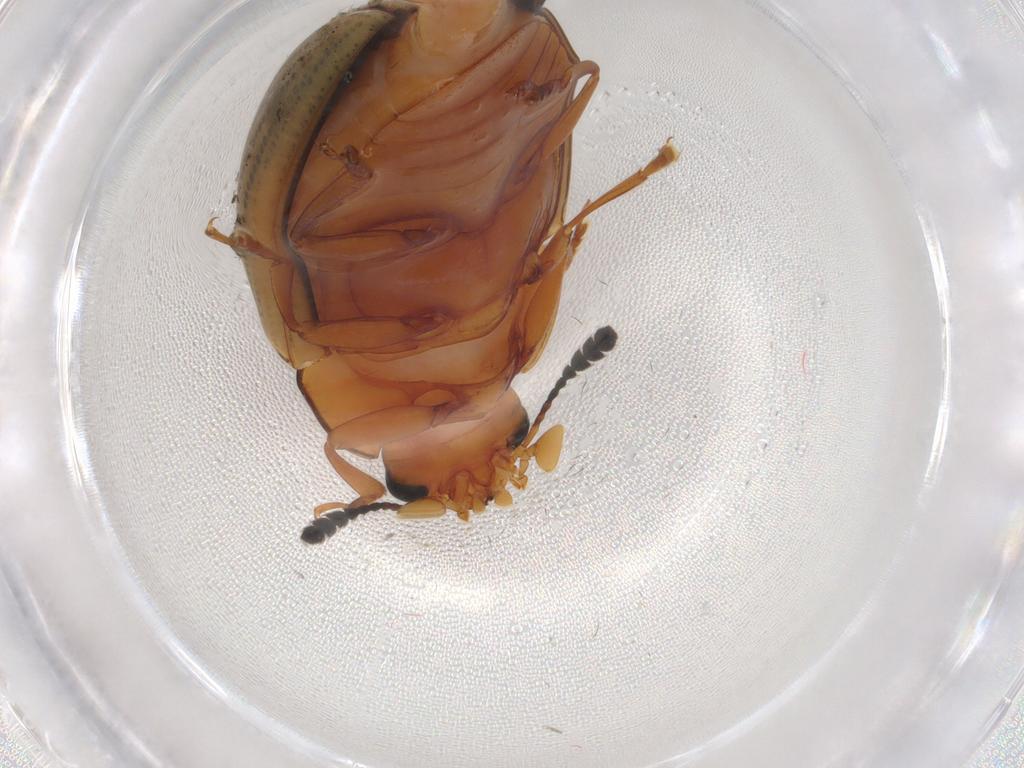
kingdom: Animalia
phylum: Arthropoda
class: Insecta
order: Coleoptera
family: Erotylidae
